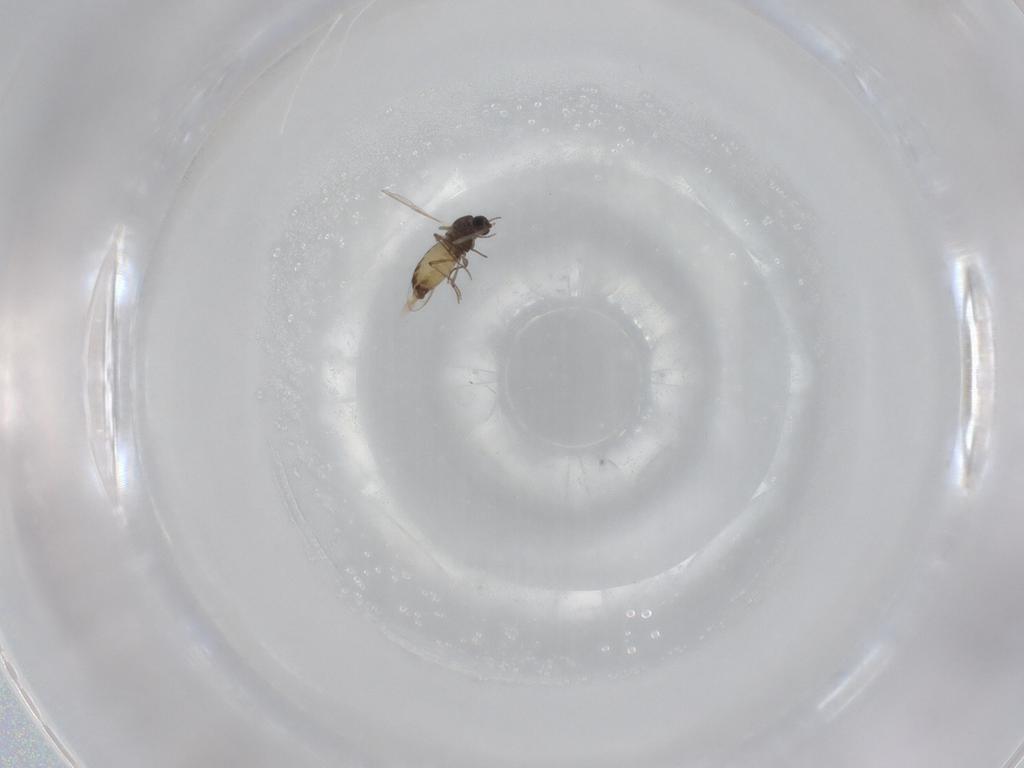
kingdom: Animalia
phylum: Arthropoda
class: Insecta
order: Diptera
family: Chironomidae
